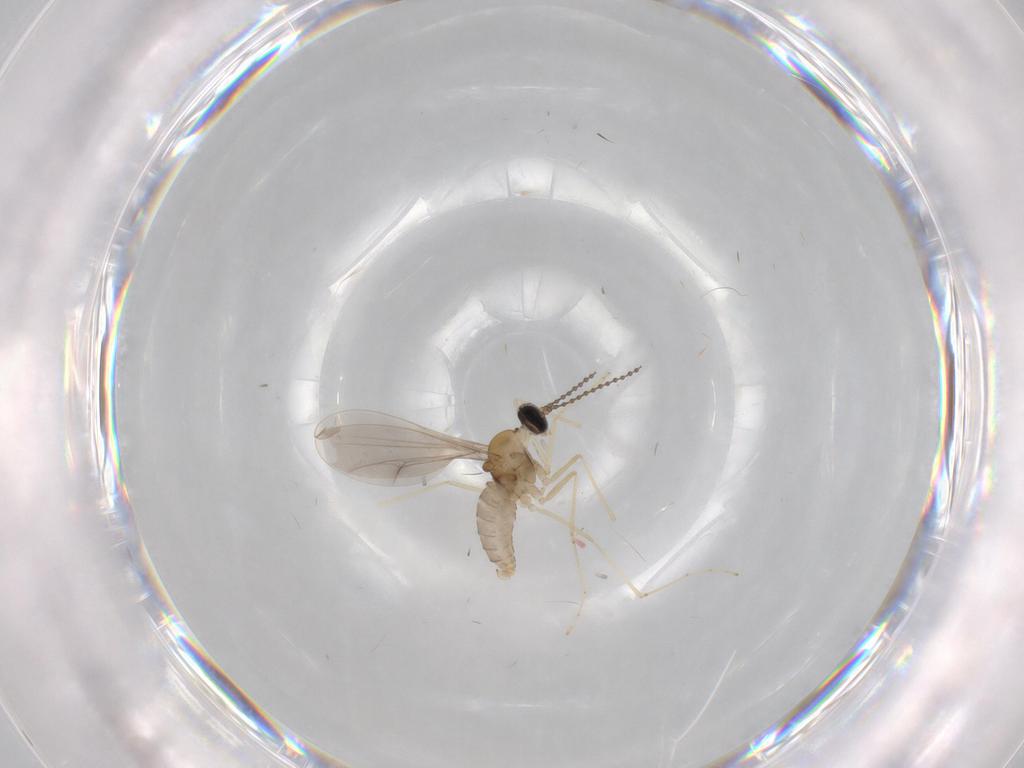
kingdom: Animalia
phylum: Arthropoda
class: Insecta
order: Diptera
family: Cecidomyiidae
